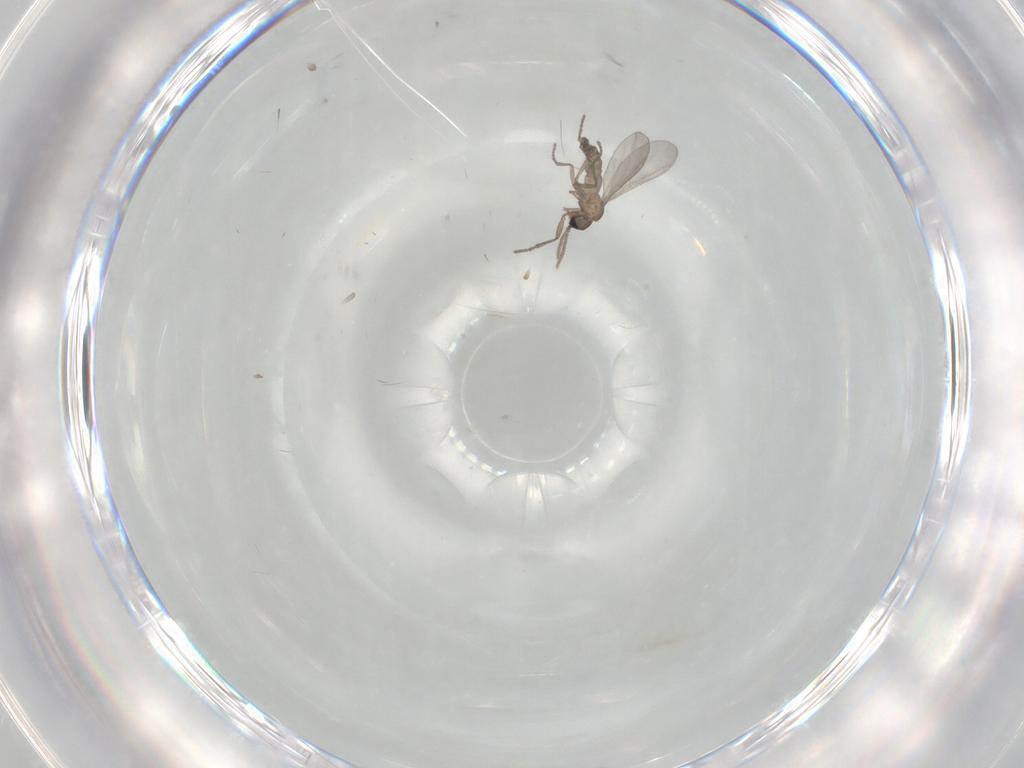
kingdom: Animalia
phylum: Arthropoda
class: Insecta
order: Diptera
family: Sciaridae
